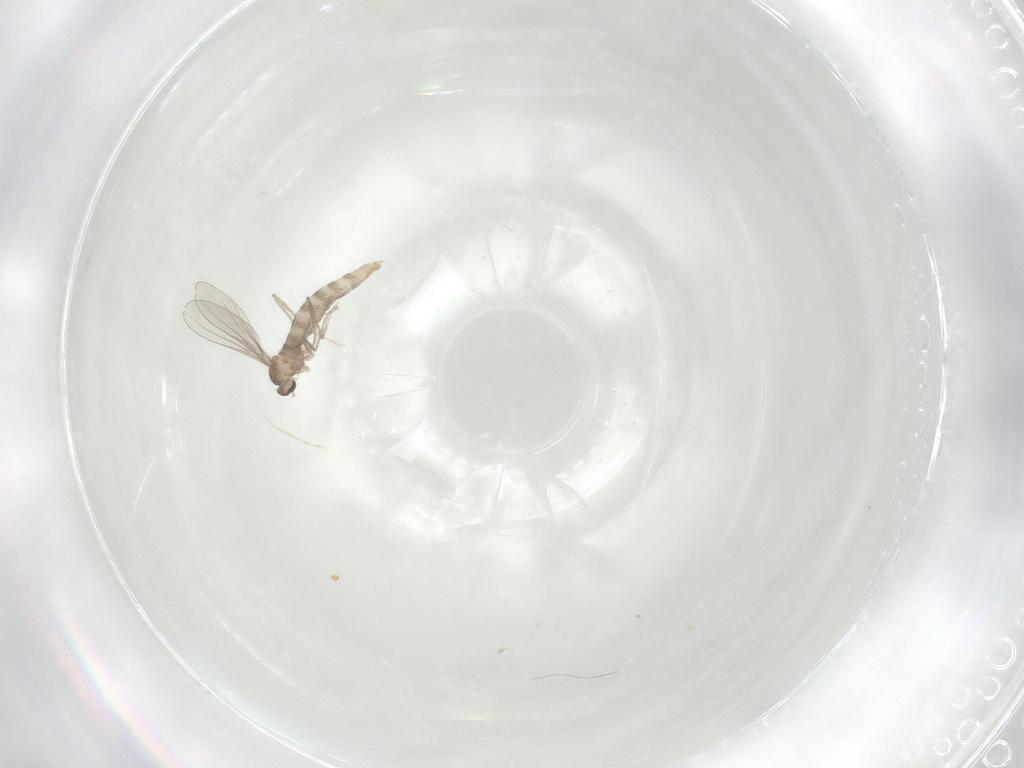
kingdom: Animalia
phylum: Arthropoda
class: Insecta
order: Diptera
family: Cecidomyiidae
